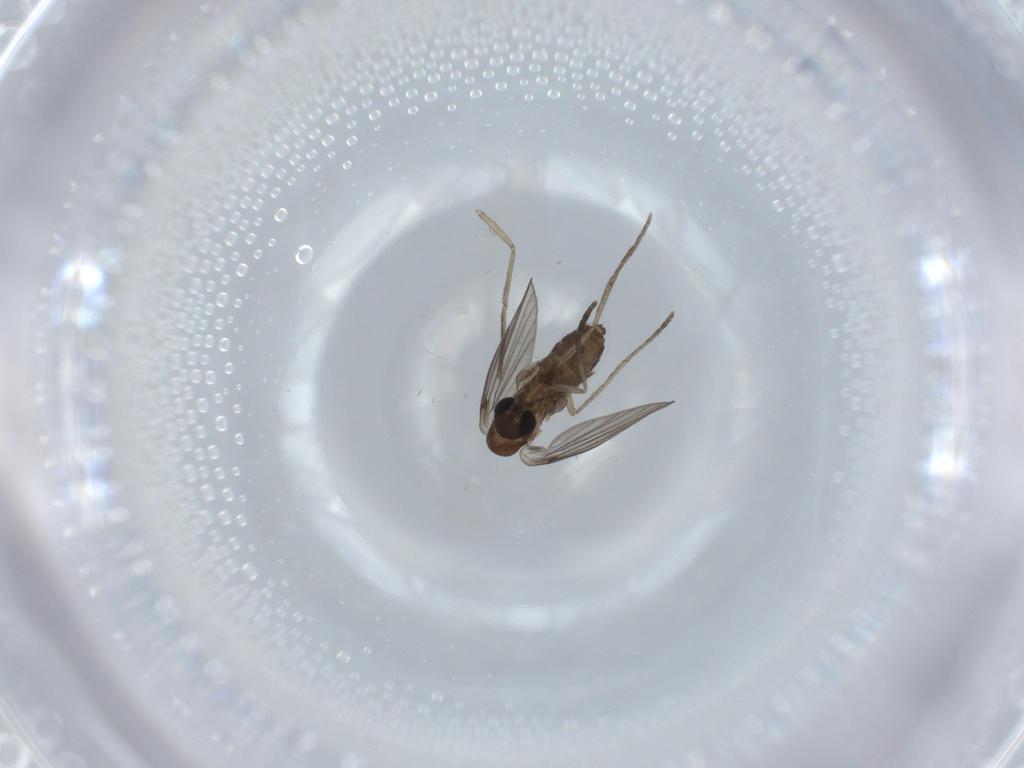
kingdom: Animalia
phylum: Arthropoda
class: Insecta
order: Diptera
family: Psychodidae
